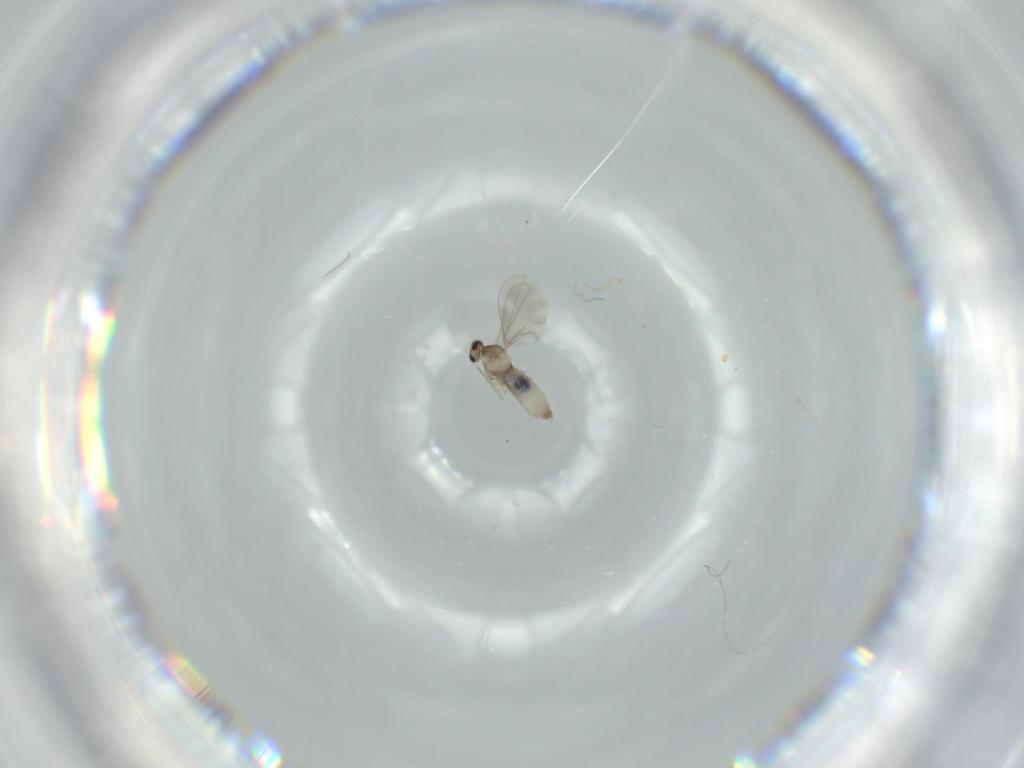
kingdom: Animalia
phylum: Arthropoda
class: Insecta
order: Diptera
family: Cecidomyiidae
